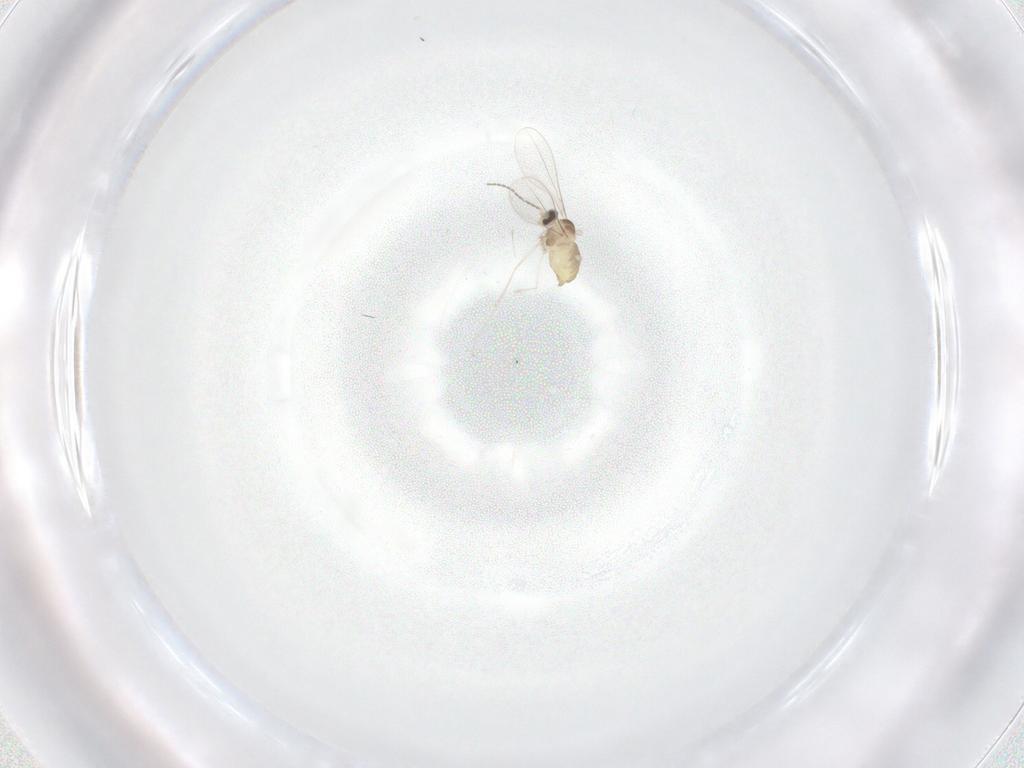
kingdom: Animalia
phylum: Arthropoda
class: Insecta
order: Diptera
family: Cecidomyiidae
